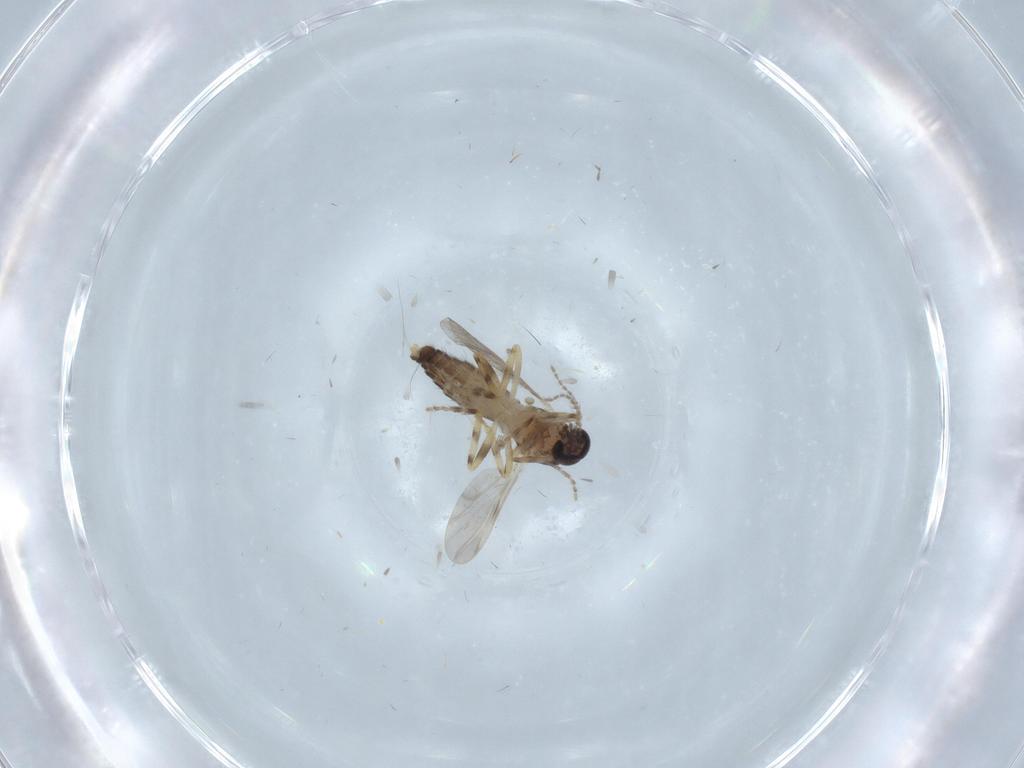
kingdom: Animalia
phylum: Arthropoda
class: Insecta
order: Diptera
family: Ceratopogonidae
